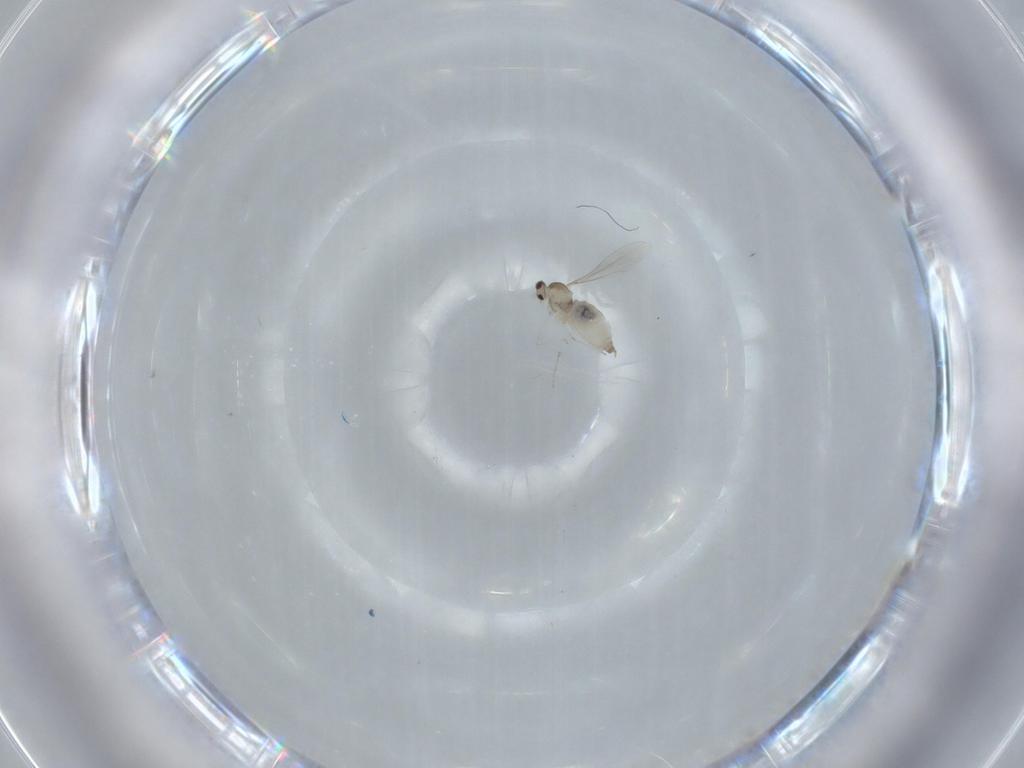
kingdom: Animalia
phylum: Arthropoda
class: Insecta
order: Diptera
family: Cecidomyiidae
